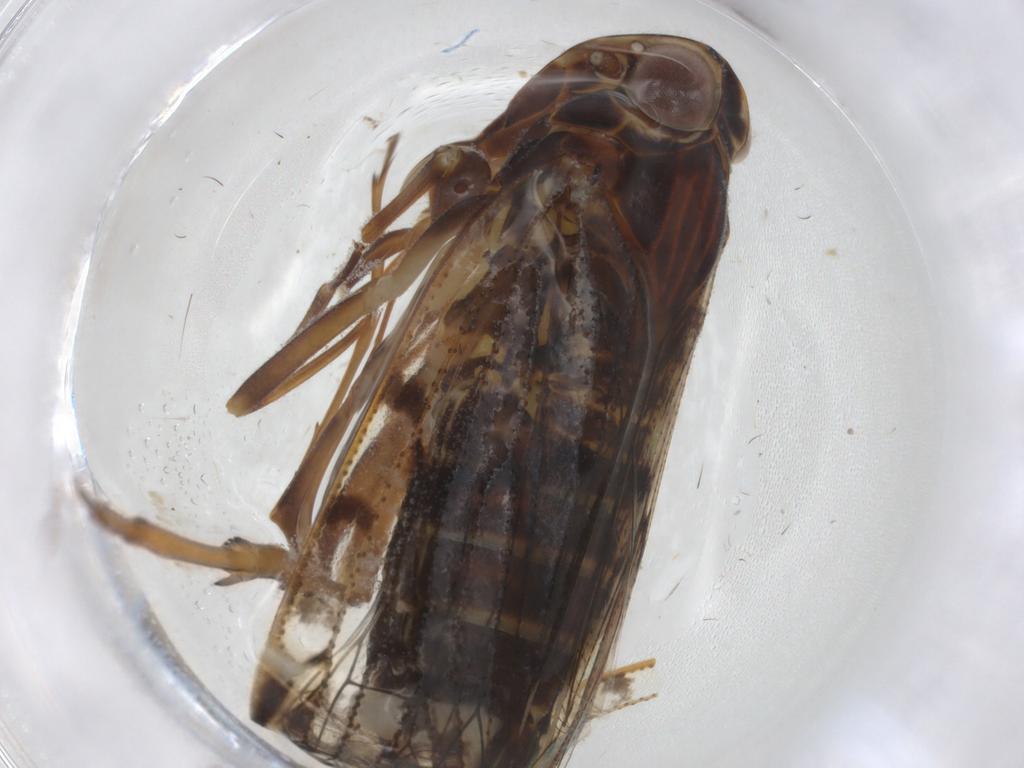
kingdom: Animalia
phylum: Arthropoda
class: Insecta
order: Hemiptera
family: Cixiidae
